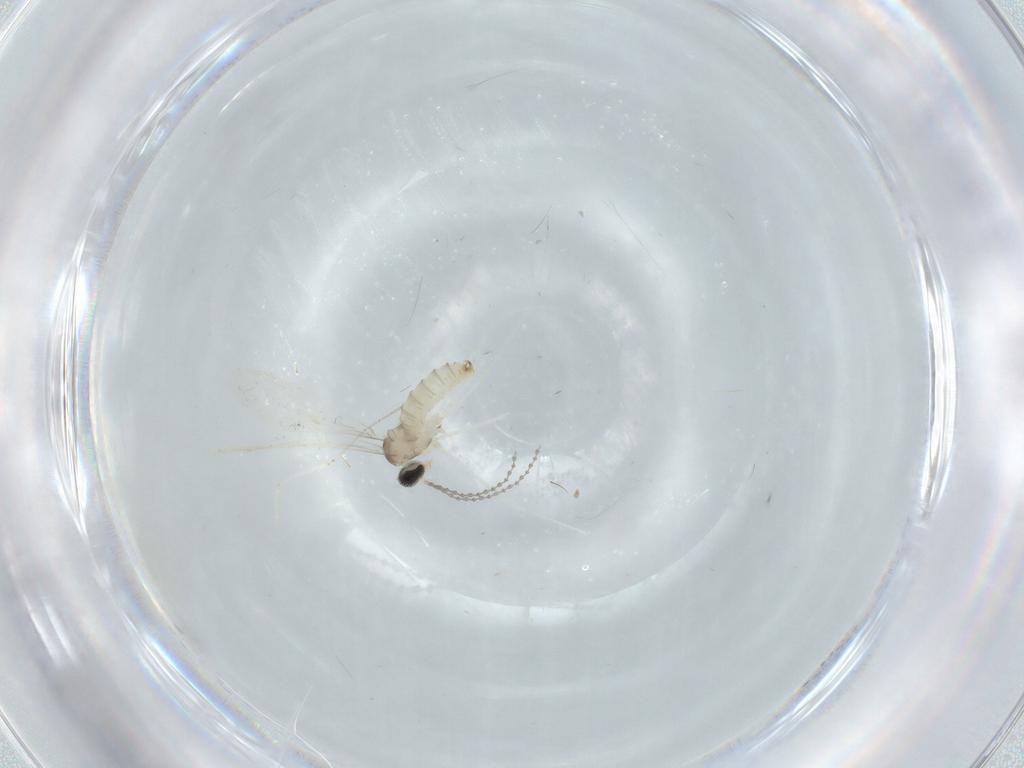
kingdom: Animalia
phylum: Arthropoda
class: Insecta
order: Diptera
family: Cecidomyiidae
